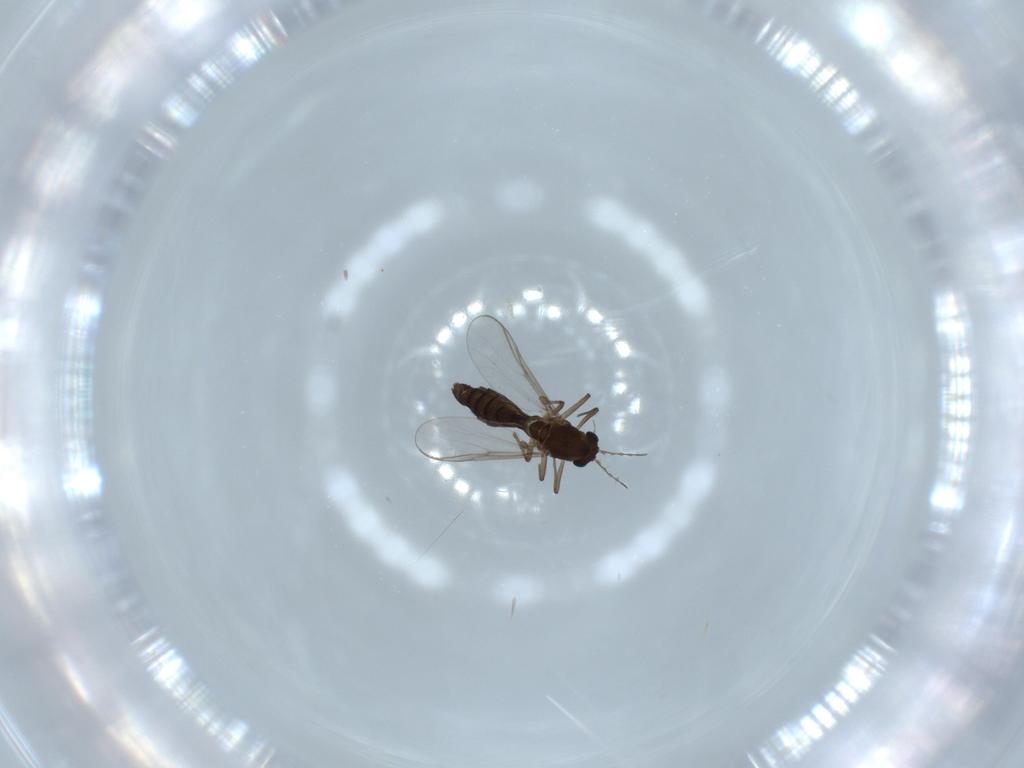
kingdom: Animalia
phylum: Arthropoda
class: Insecta
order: Diptera
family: Chironomidae
